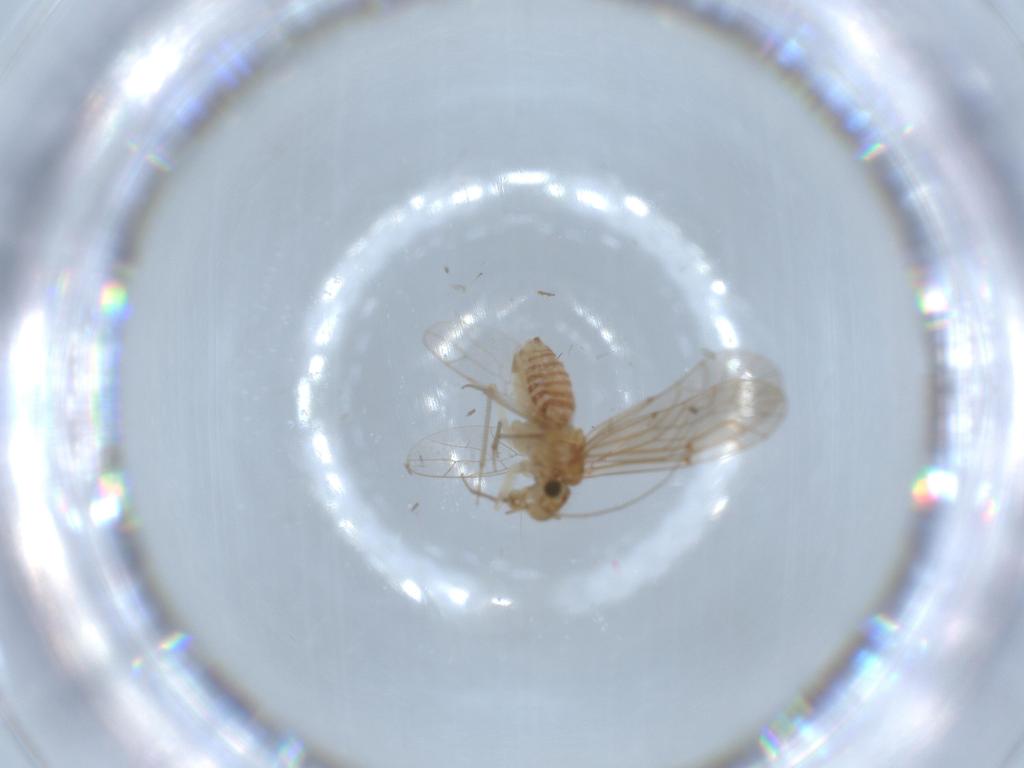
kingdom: Animalia
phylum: Arthropoda
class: Insecta
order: Psocodea
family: Lachesillidae
